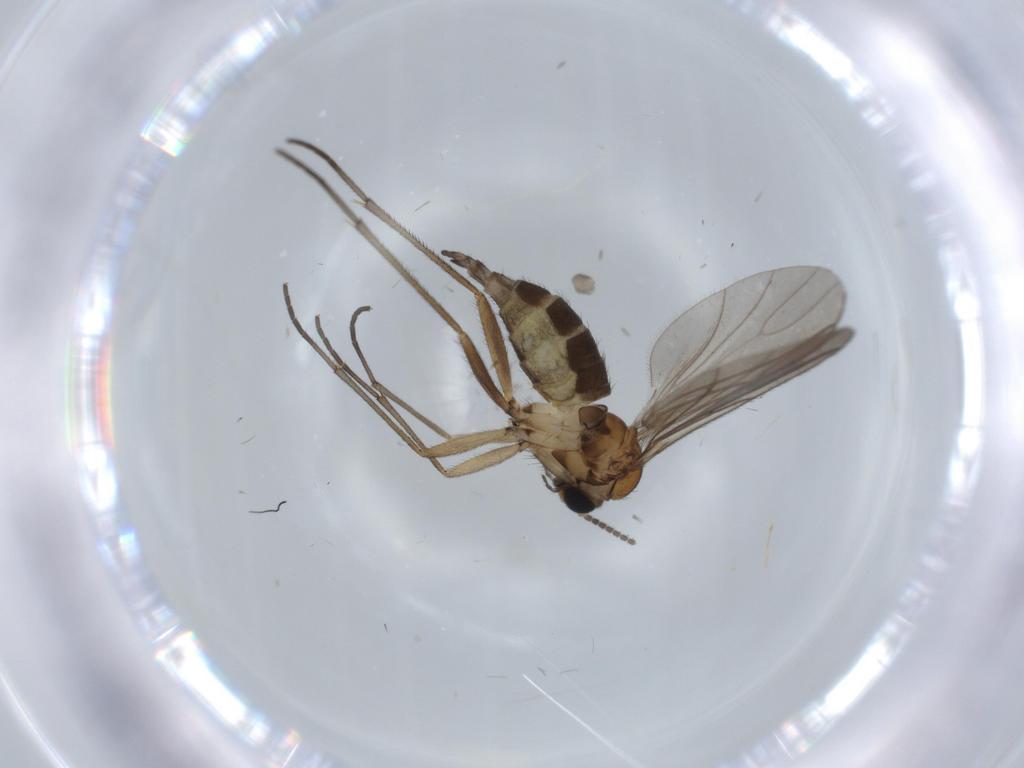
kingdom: Animalia
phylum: Arthropoda
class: Insecta
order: Diptera
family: Sciaridae
